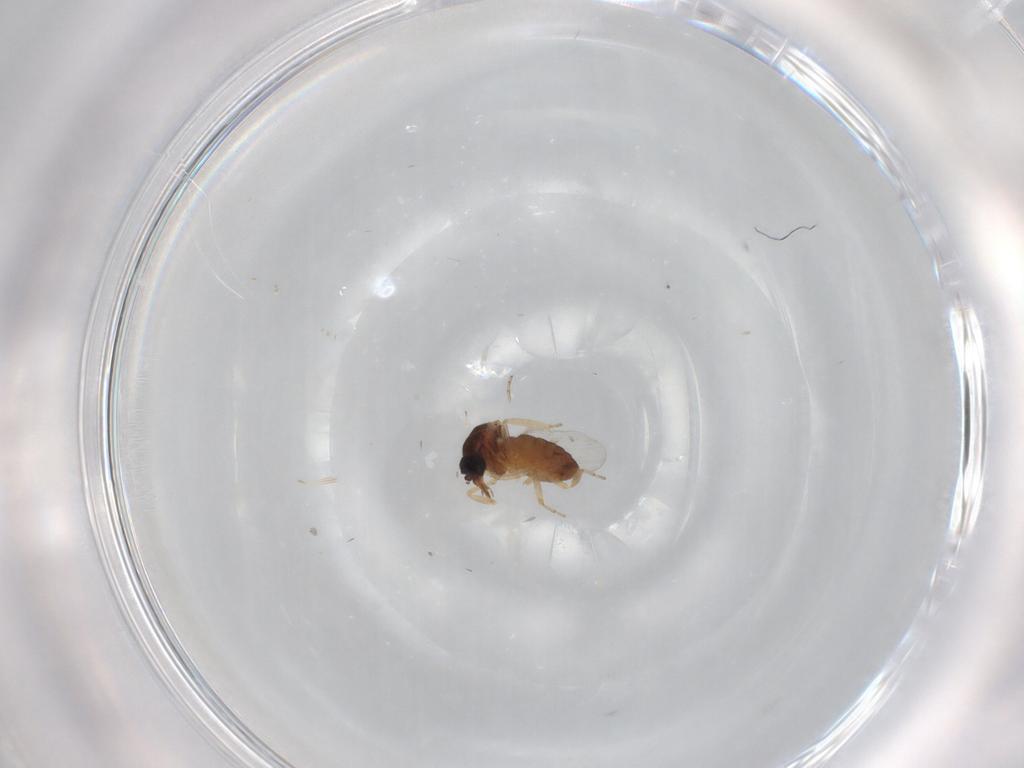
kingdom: Animalia
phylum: Arthropoda
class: Insecta
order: Diptera
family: Ceratopogonidae
